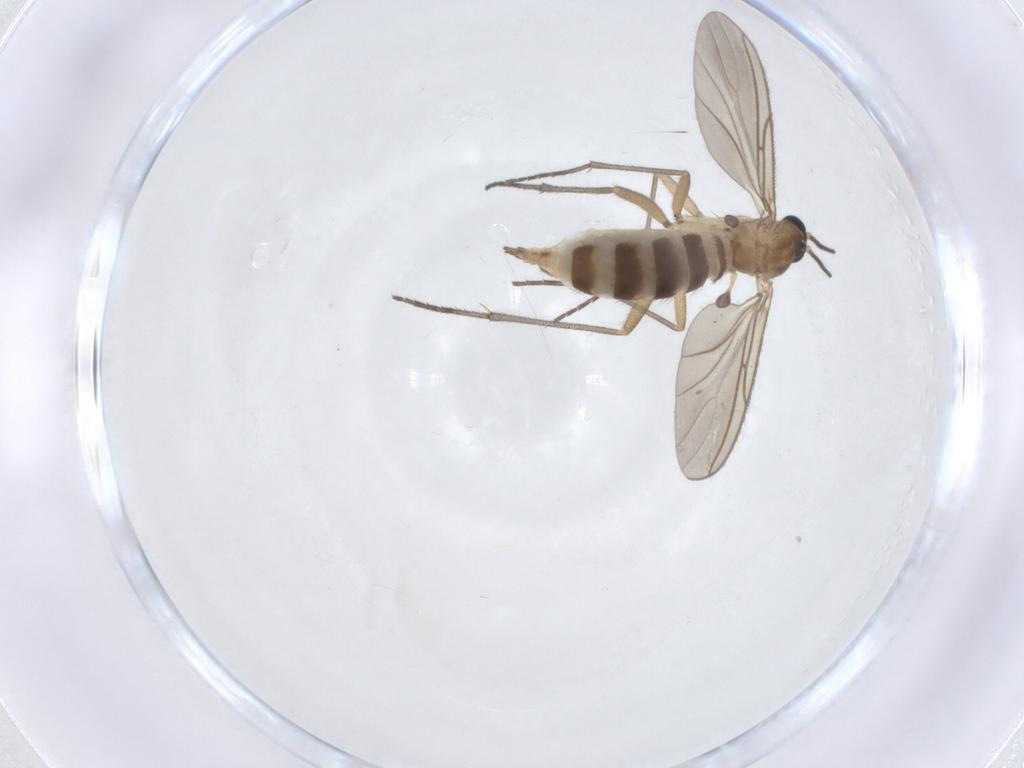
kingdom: Animalia
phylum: Arthropoda
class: Insecta
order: Diptera
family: Sciaridae
